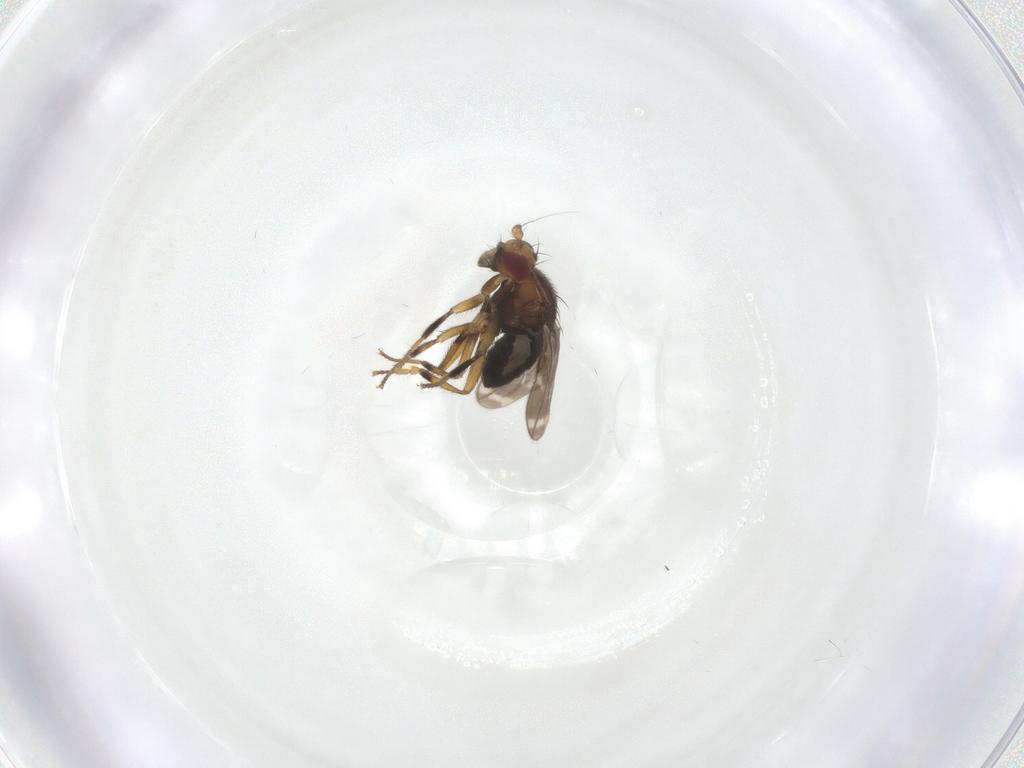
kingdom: Animalia
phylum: Arthropoda
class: Insecta
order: Diptera
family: Sphaeroceridae
